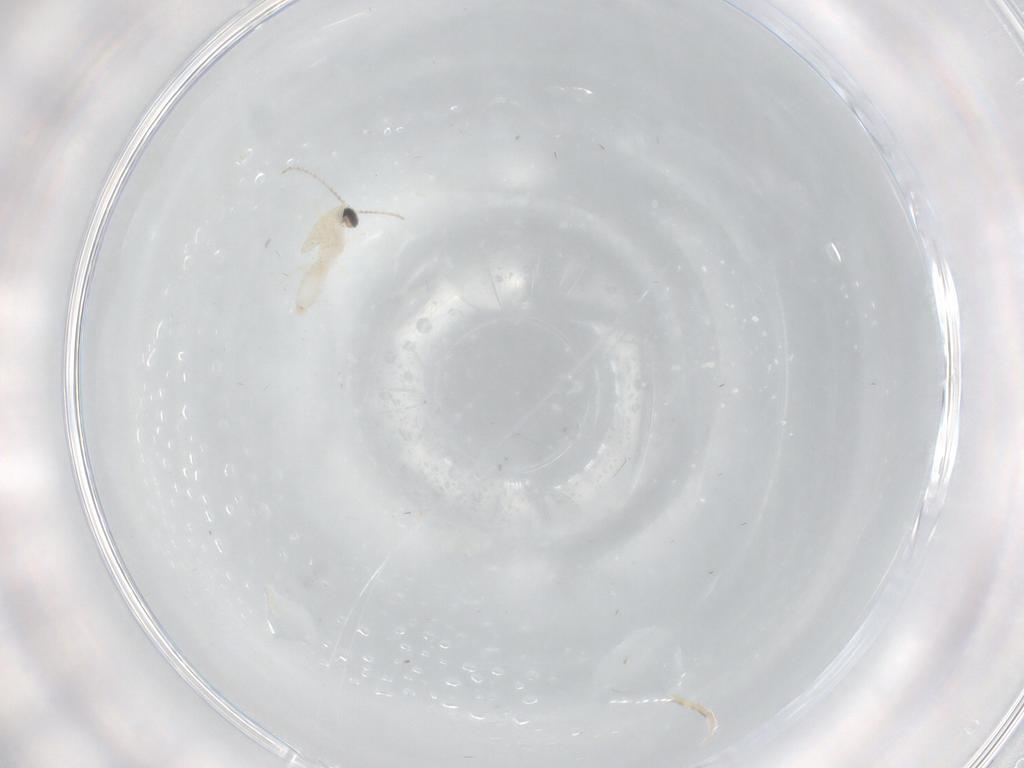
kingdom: Animalia
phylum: Arthropoda
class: Insecta
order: Diptera
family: Cecidomyiidae
